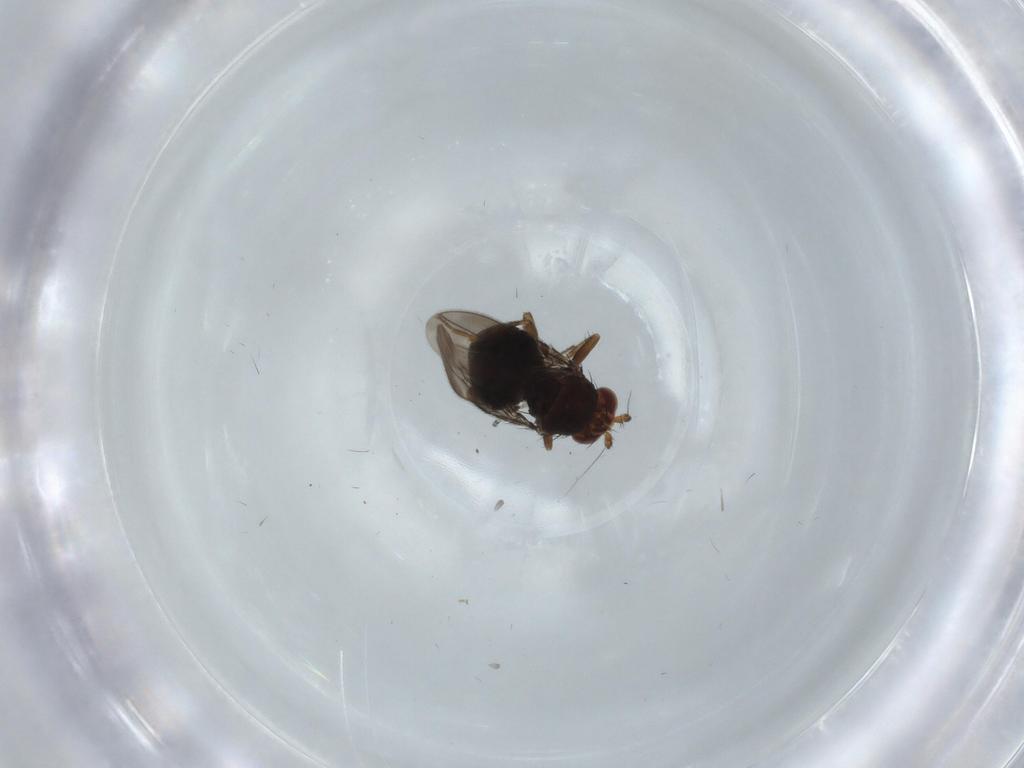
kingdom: Animalia
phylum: Arthropoda
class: Insecta
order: Diptera
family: Sphaeroceridae
